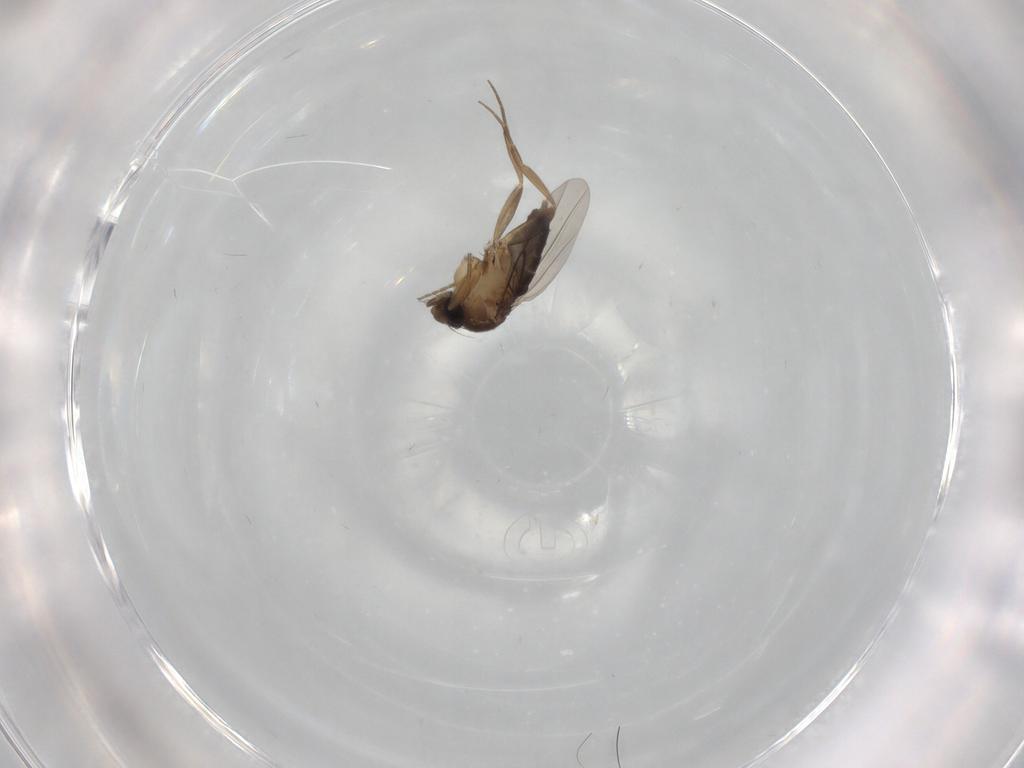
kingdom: Animalia
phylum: Arthropoda
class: Insecta
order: Diptera
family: Phoridae
